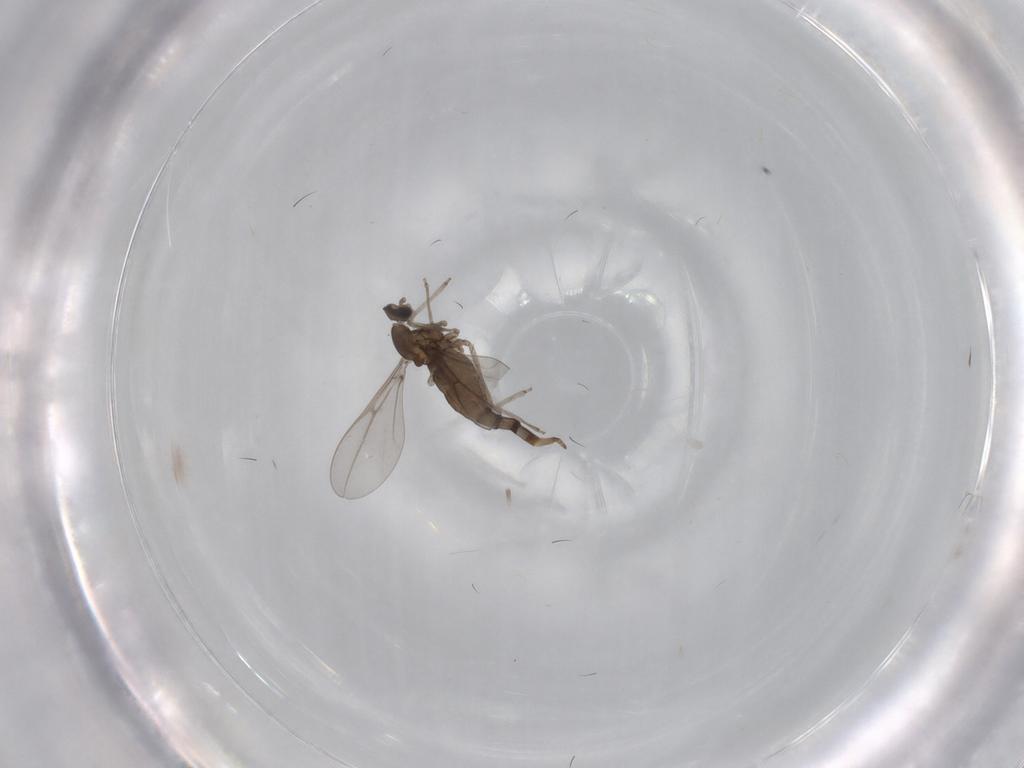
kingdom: Animalia
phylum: Arthropoda
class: Insecta
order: Diptera
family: Cecidomyiidae
